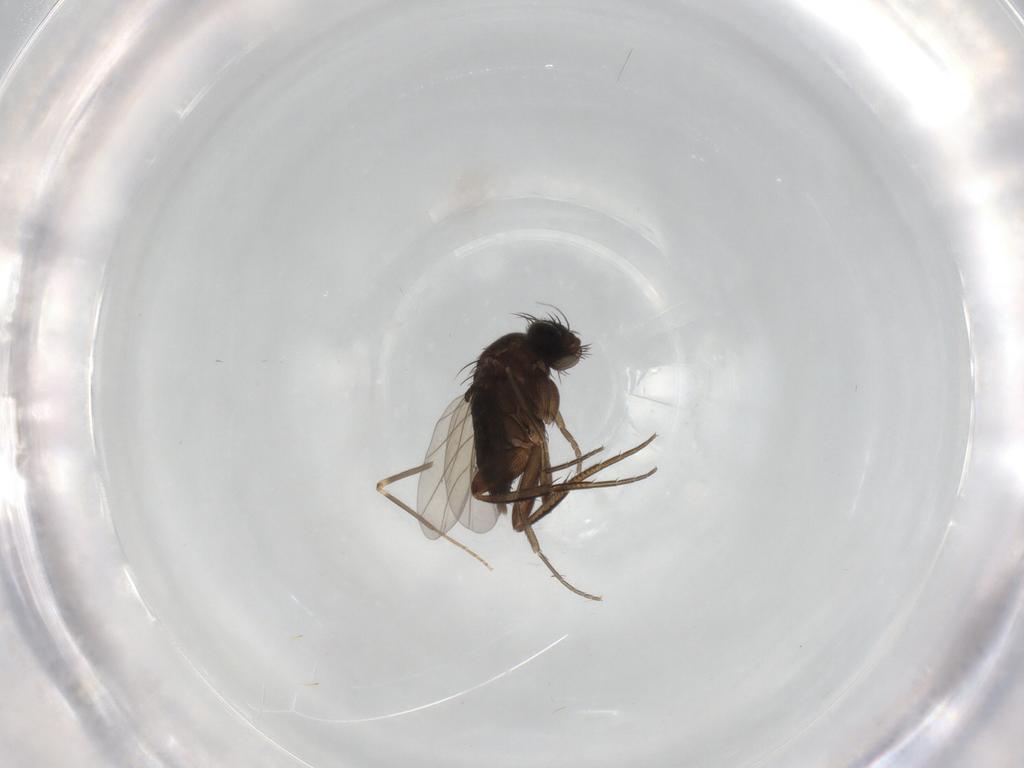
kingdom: Animalia
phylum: Arthropoda
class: Insecta
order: Diptera
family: Phoridae
